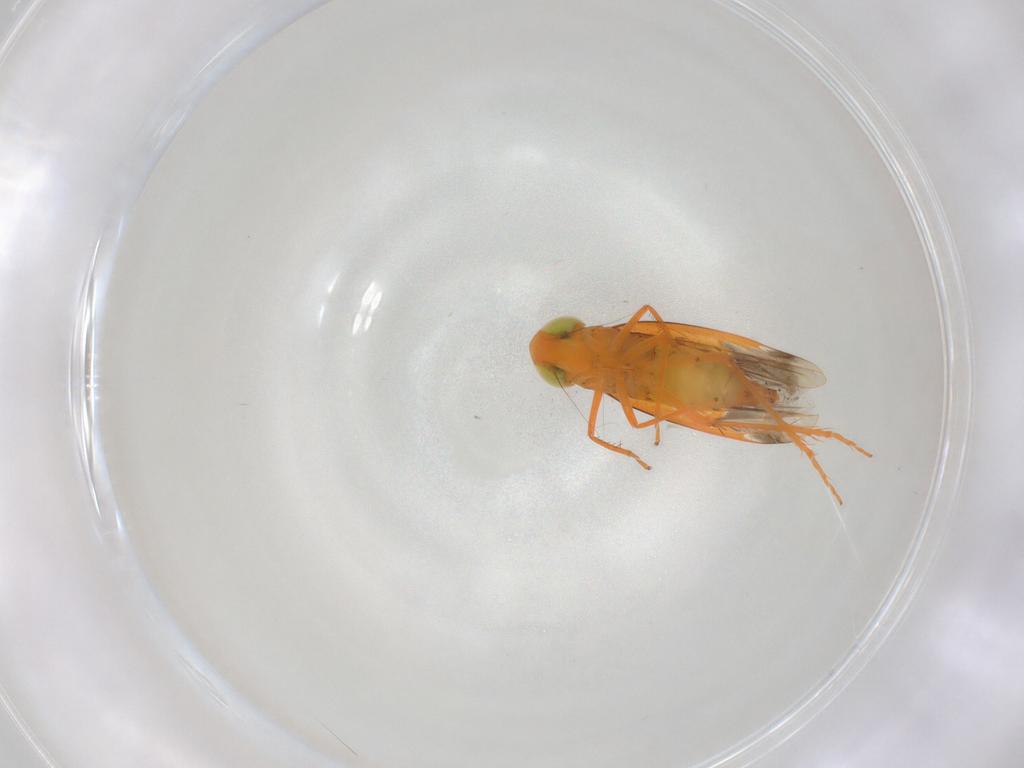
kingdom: Animalia
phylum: Arthropoda
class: Insecta
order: Hemiptera
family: Cicadellidae
